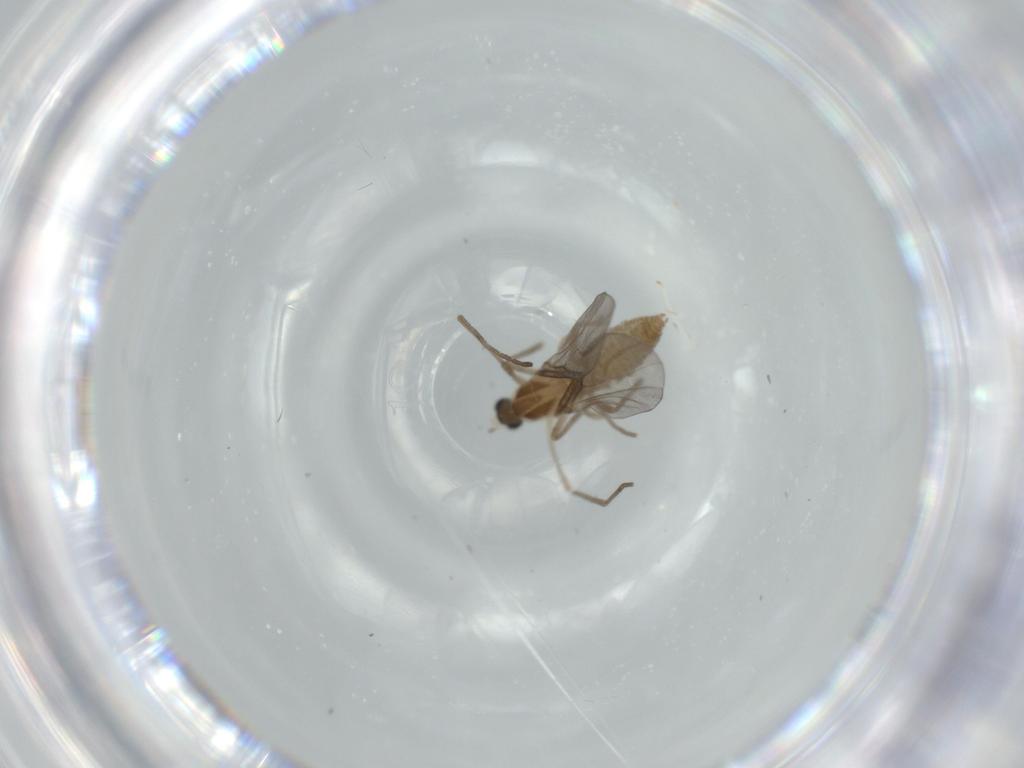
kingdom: Animalia
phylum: Arthropoda
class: Insecta
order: Diptera
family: Cecidomyiidae
